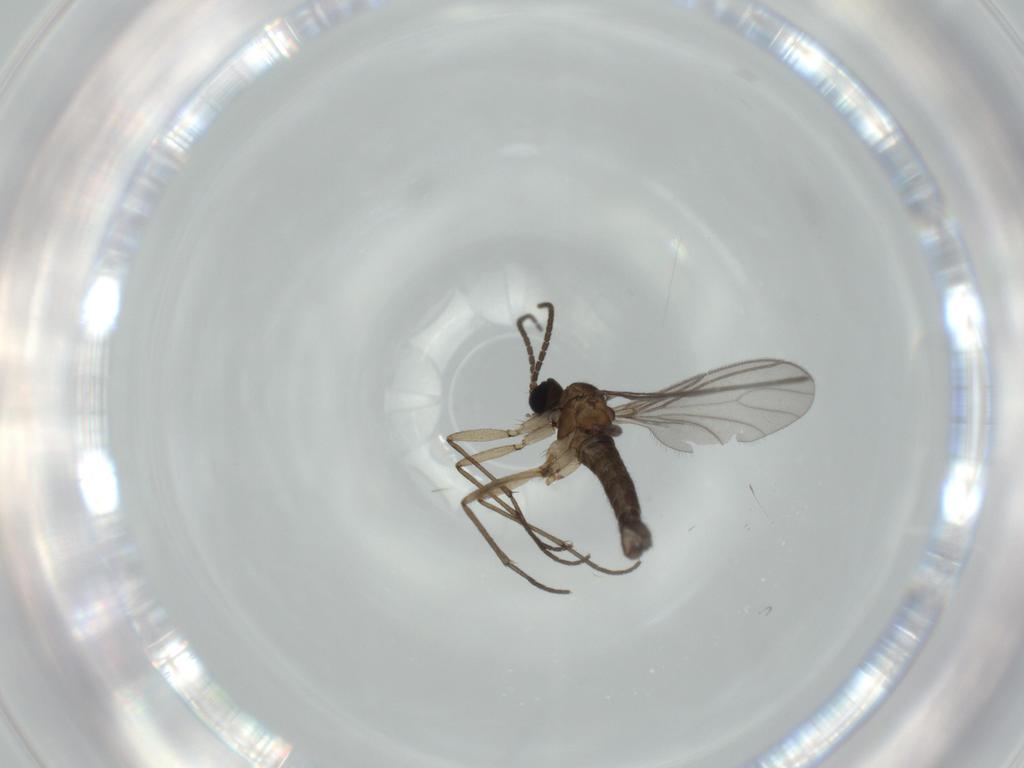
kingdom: Animalia
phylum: Arthropoda
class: Insecta
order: Diptera
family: Sciaridae
